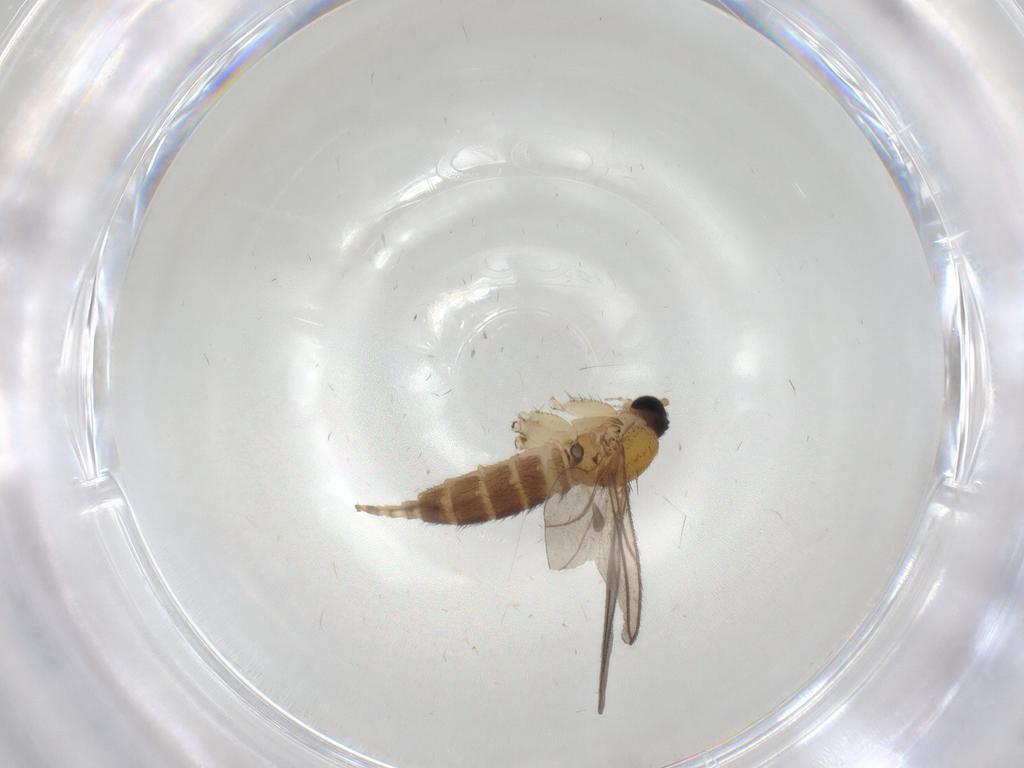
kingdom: Animalia
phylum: Arthropoda
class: Insecta
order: Diptera
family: Sciaridae
